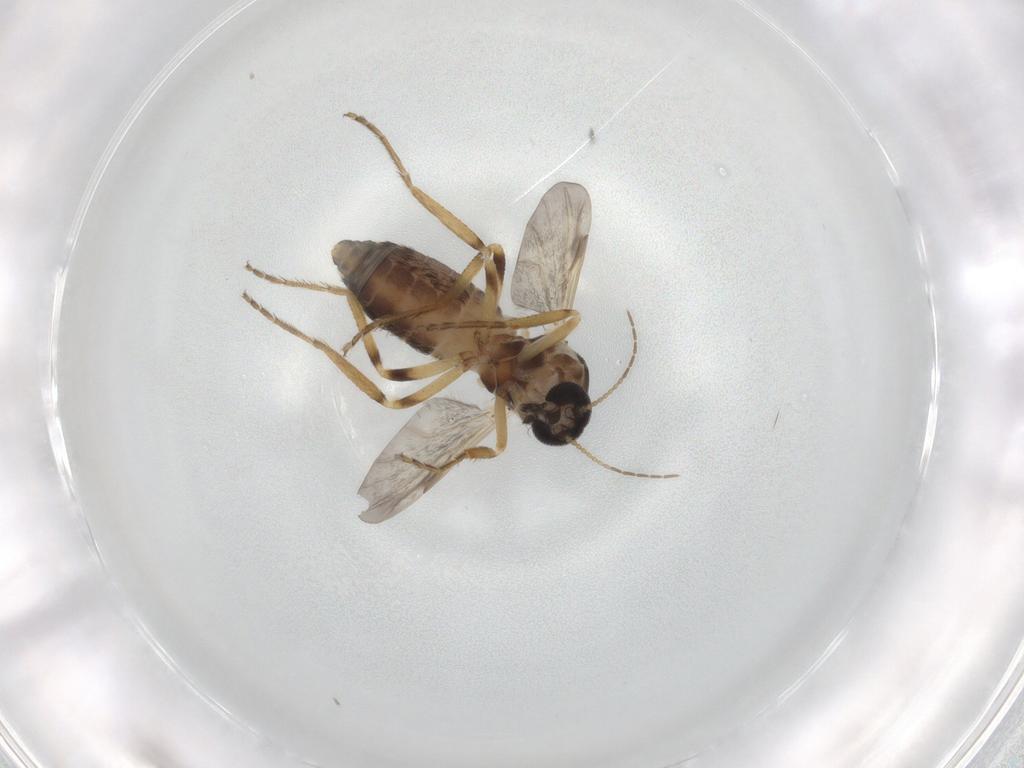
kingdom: Animalia
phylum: Arthropoda
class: Insecta
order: Diptera
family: Ceratopogonidae
